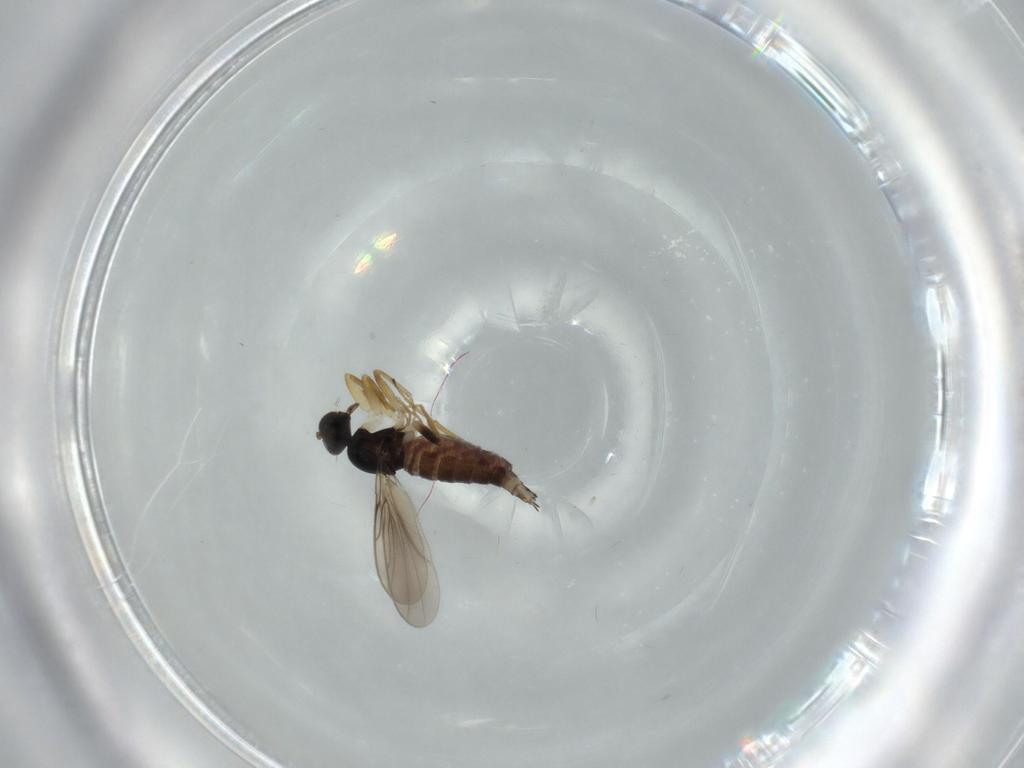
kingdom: Animalia
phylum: Arthropoda
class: Insecta
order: Diptera
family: Hybotidae
